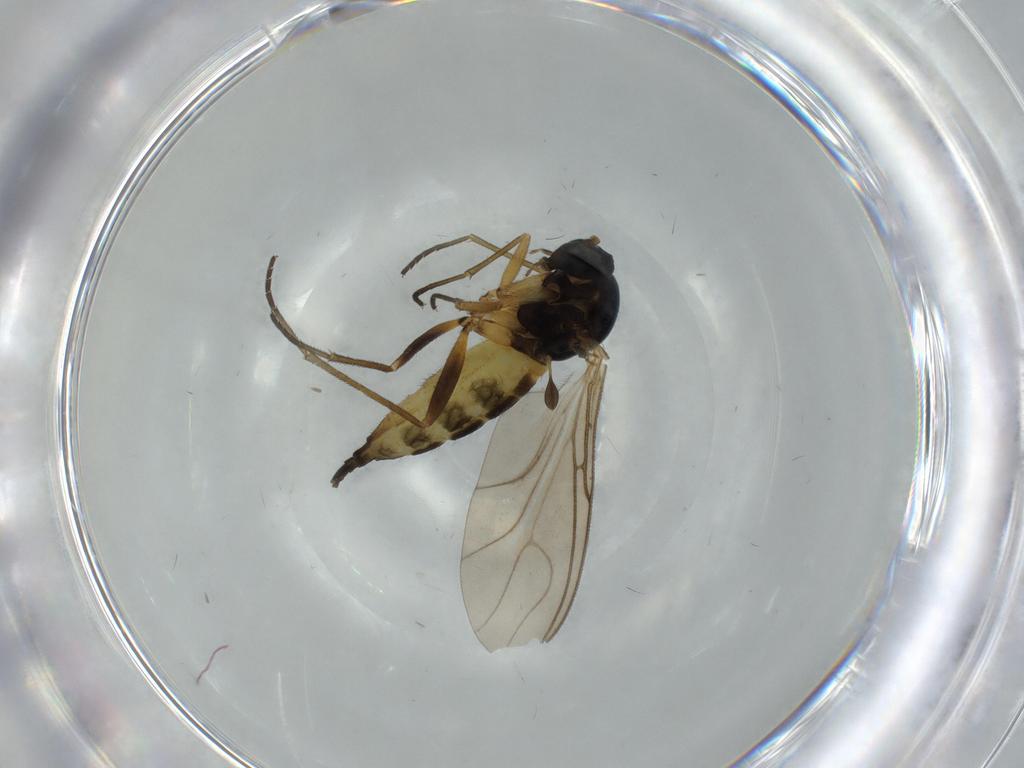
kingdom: Animalia
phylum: Arthropoda
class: Insecta
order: Diptera
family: Sciaridae
